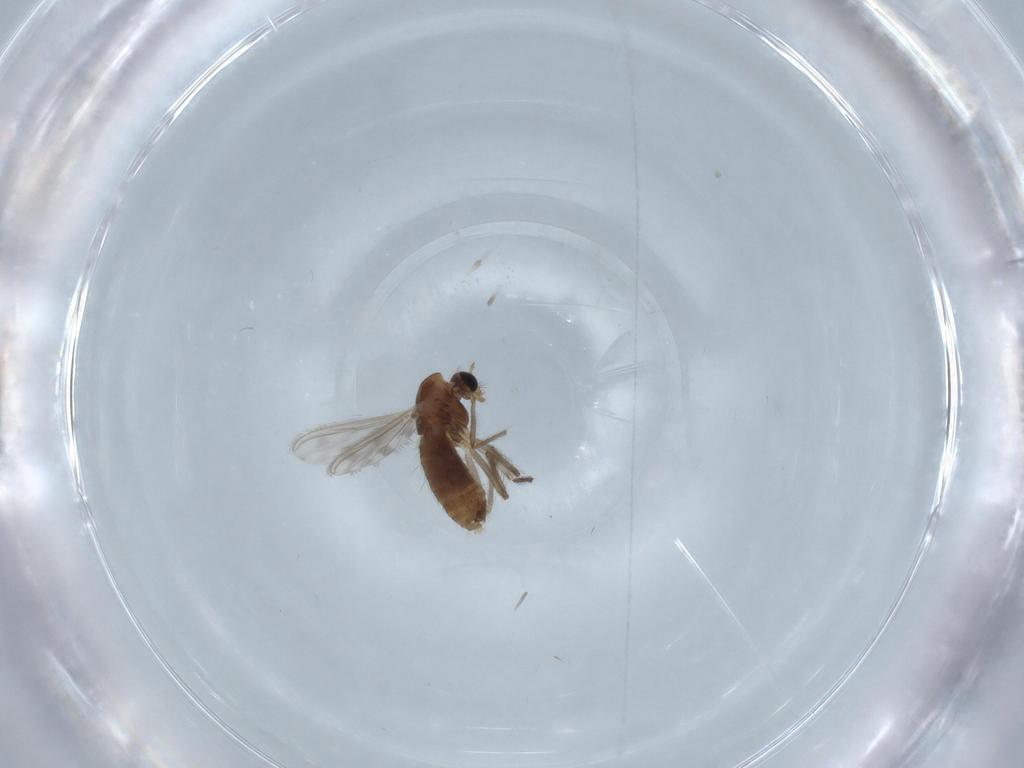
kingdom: Animalia
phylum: Arthropoda
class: Insecta
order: Diptera
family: Chironomidae
